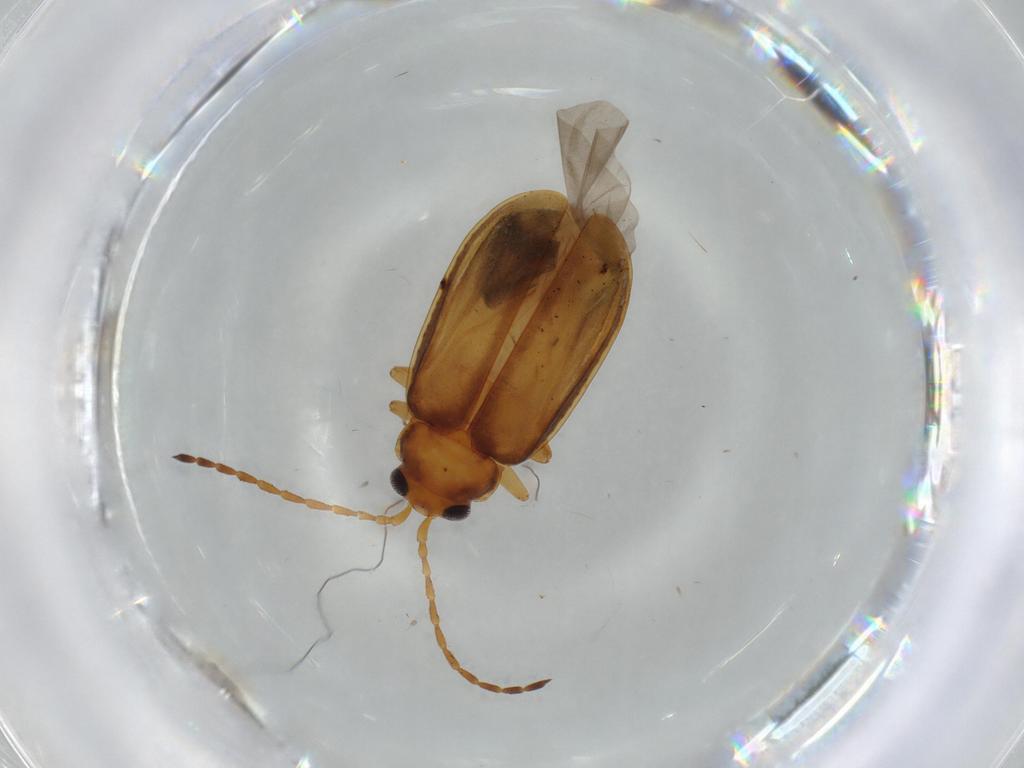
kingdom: Animalia
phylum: Arthropoda
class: Insecta
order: Coleoptera
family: Chrysomelidae
